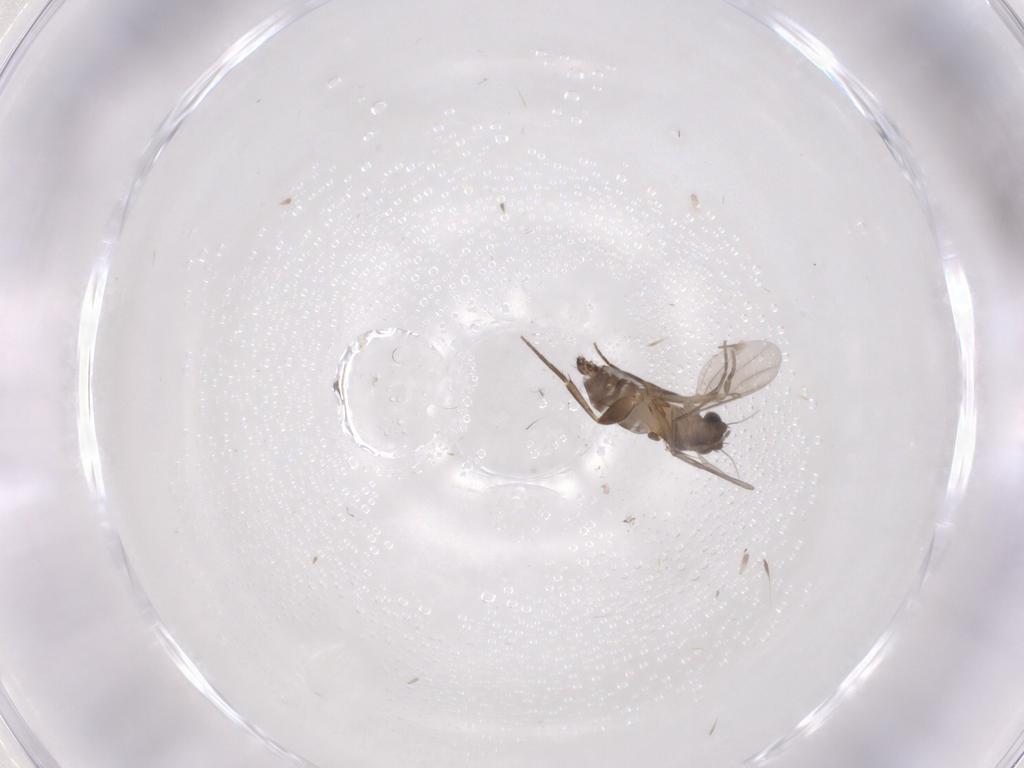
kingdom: Animalia
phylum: Arthropoda
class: Insecta
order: Diptera
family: Phoridae
